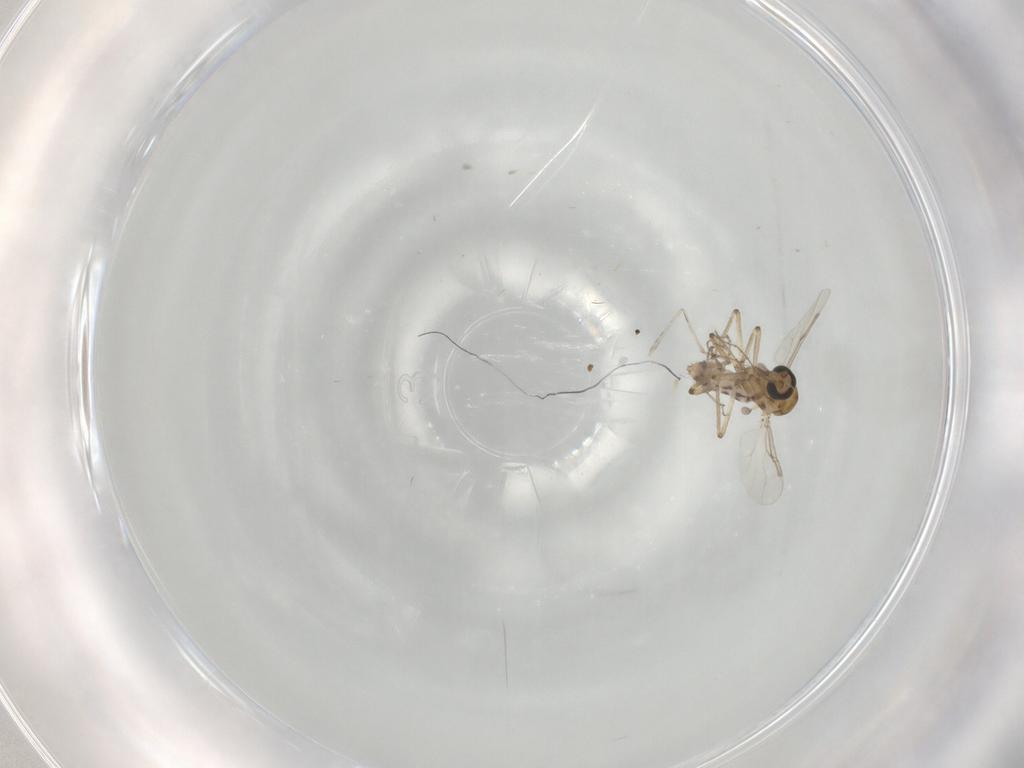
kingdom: Animalia
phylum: Arthropoda
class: Insecta
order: Diptera
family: Ceratopogonidae
